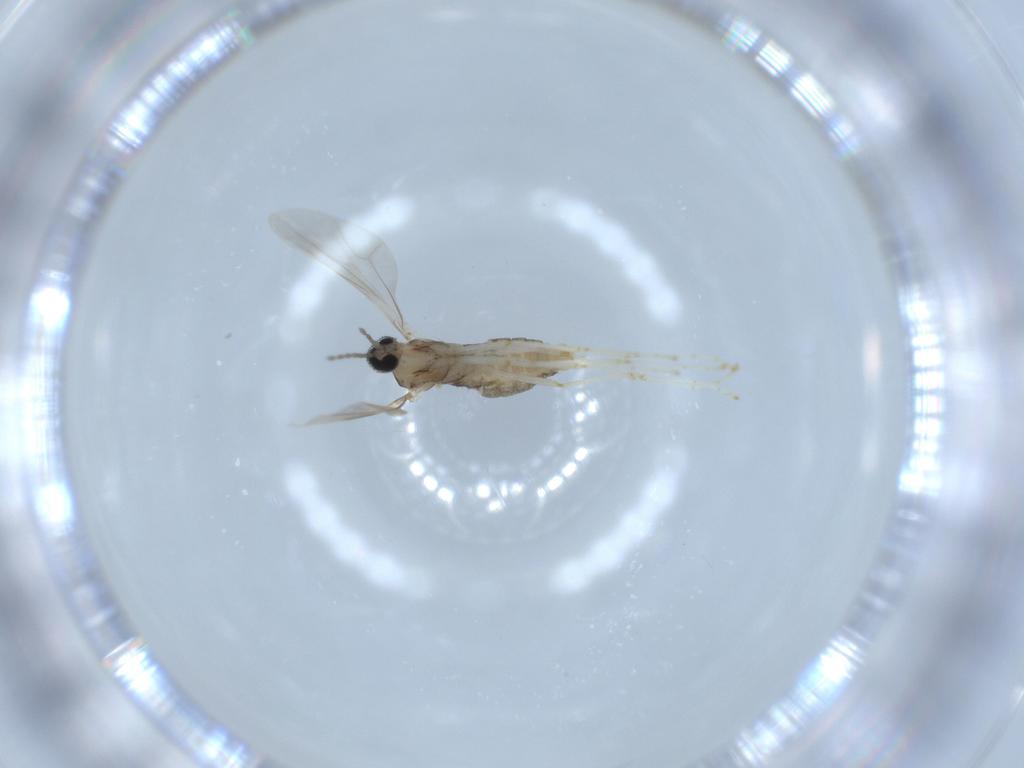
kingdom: Animalia
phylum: Arthropoda
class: Insecta
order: Diptera
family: Cecidomyiidae
